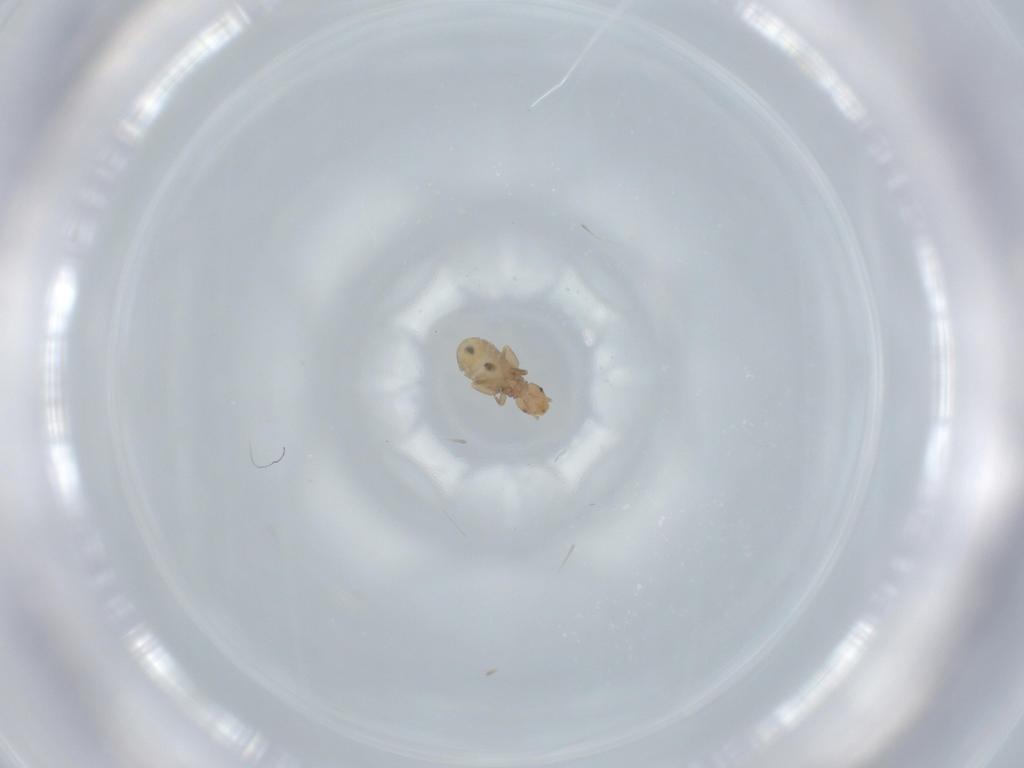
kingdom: Animalia
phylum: Arthropoda
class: Insecta
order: Psocodea
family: Liposcelididae
